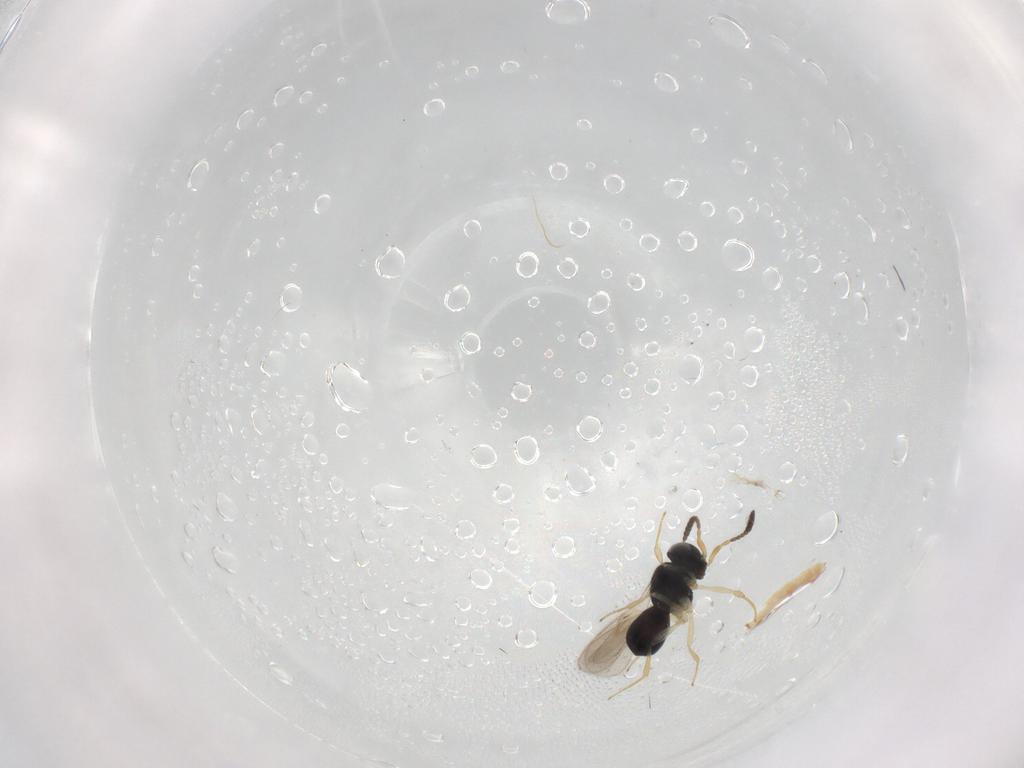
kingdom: Animalia
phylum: Arthropoda
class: Insecta
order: Hymenoptera
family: Scelionidae
